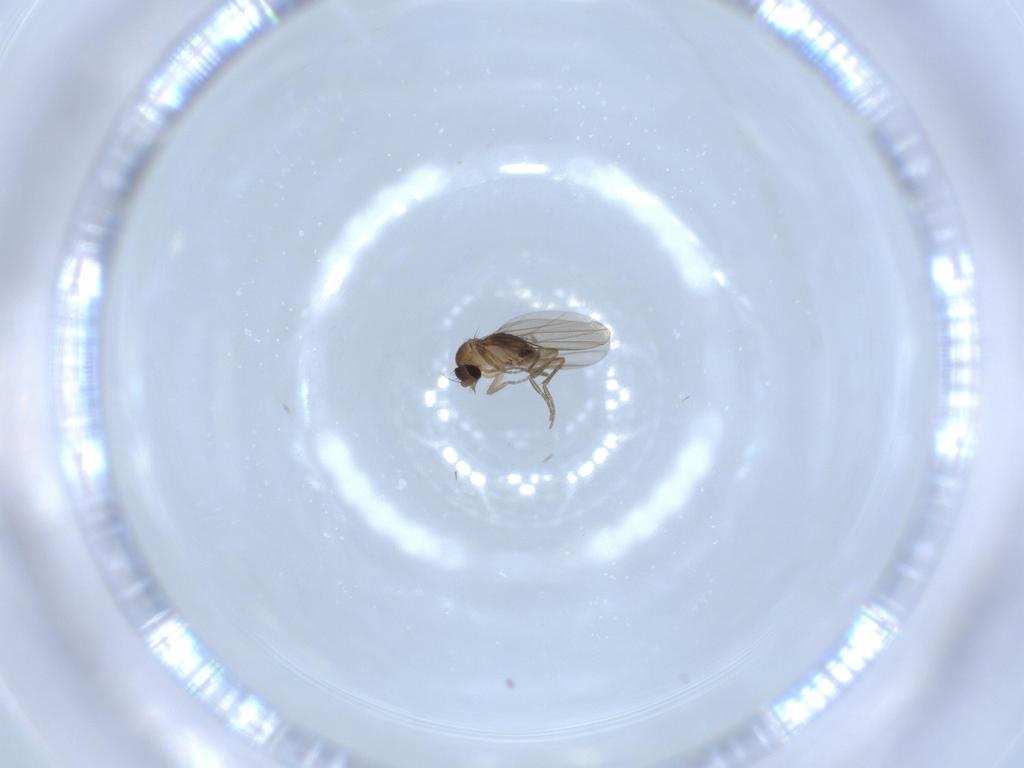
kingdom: Animalia
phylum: Arthropoda
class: Insecta
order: Diptera
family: Phoridae
